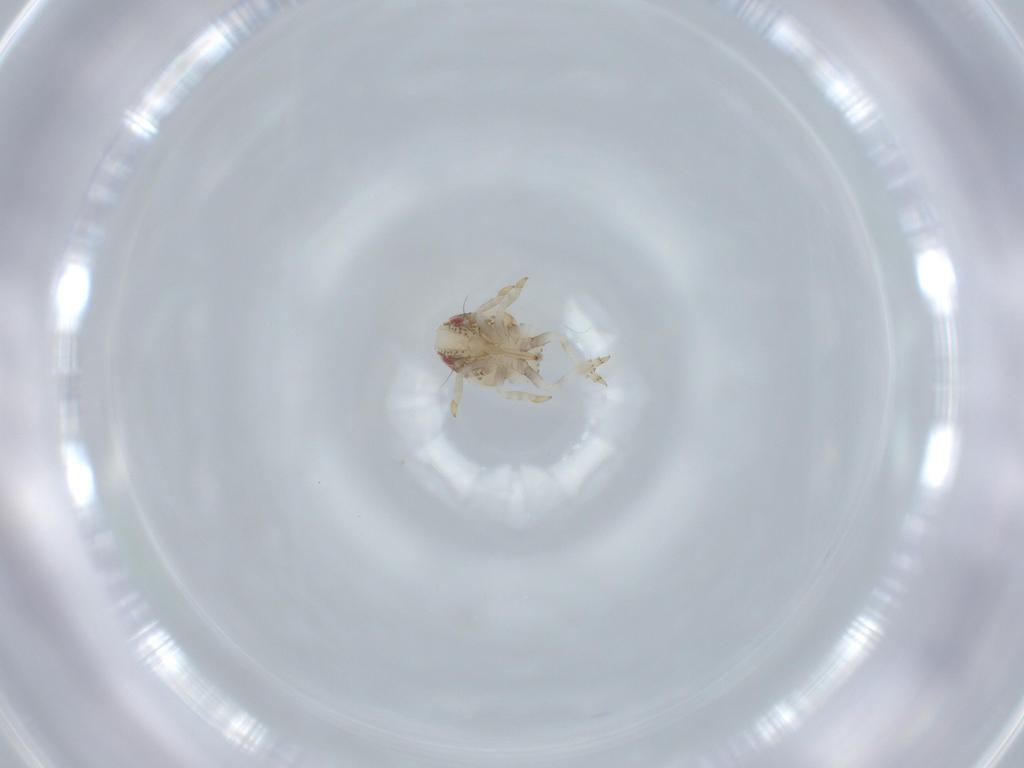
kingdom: Animalia
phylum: Arthropoda
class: Insecta
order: Hemiptera
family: Acanaloniidae
